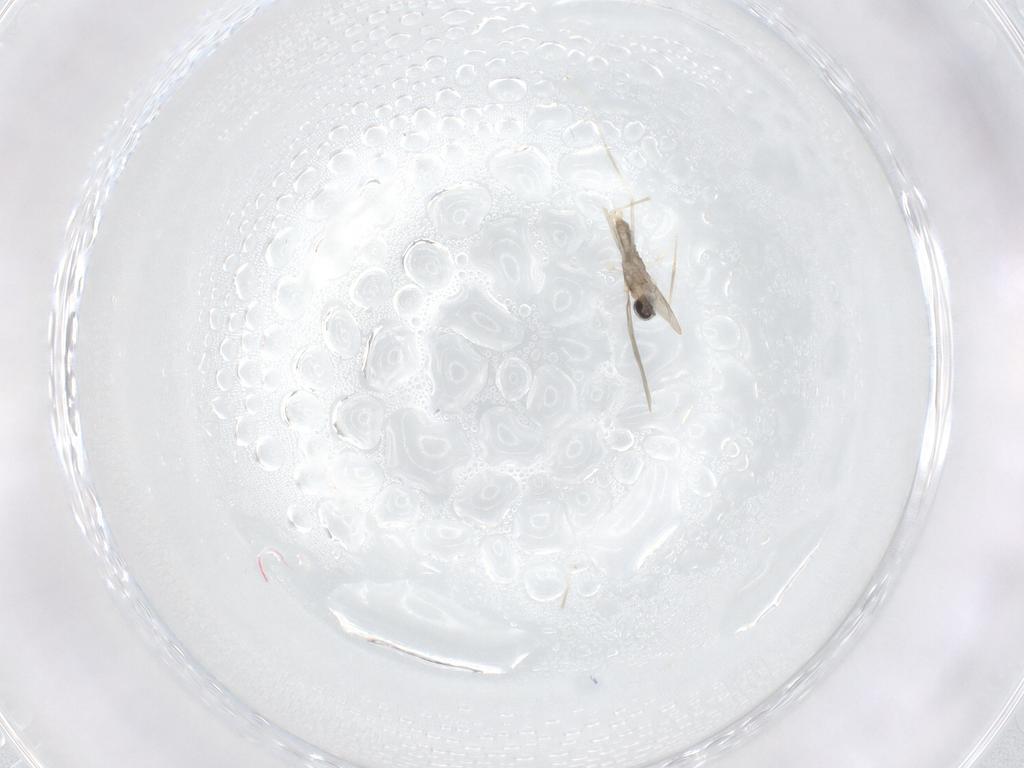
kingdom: Animalia
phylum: Arthropoda
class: Insecta
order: Diptera
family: Cecidomyiidae
